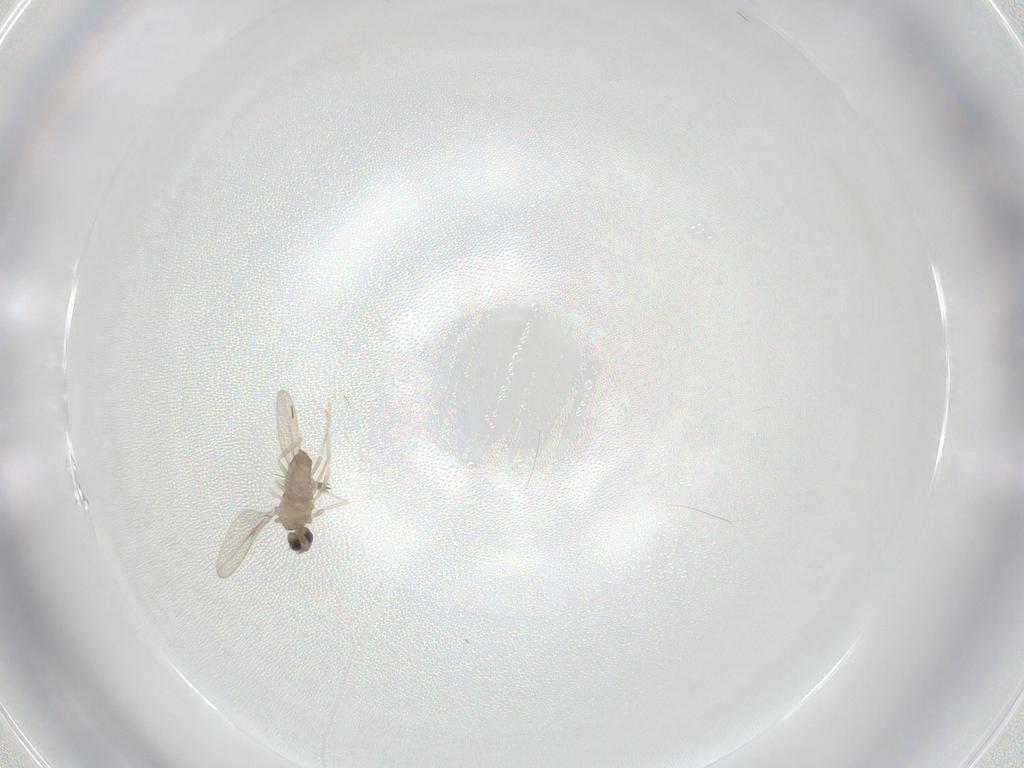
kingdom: Animalia
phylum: Arthropoda
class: Insecta
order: Diptera
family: Cecidomyiidae
